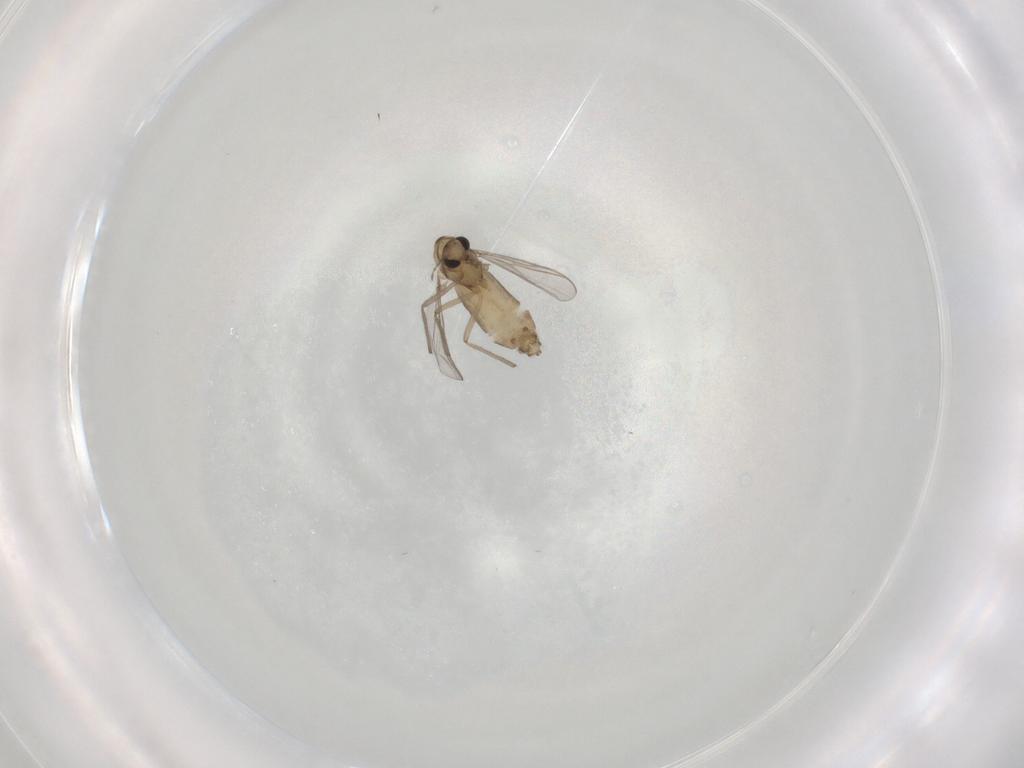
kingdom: Animalia
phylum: Arthropoda
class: Insecta
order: Diptera
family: Chironomidae
